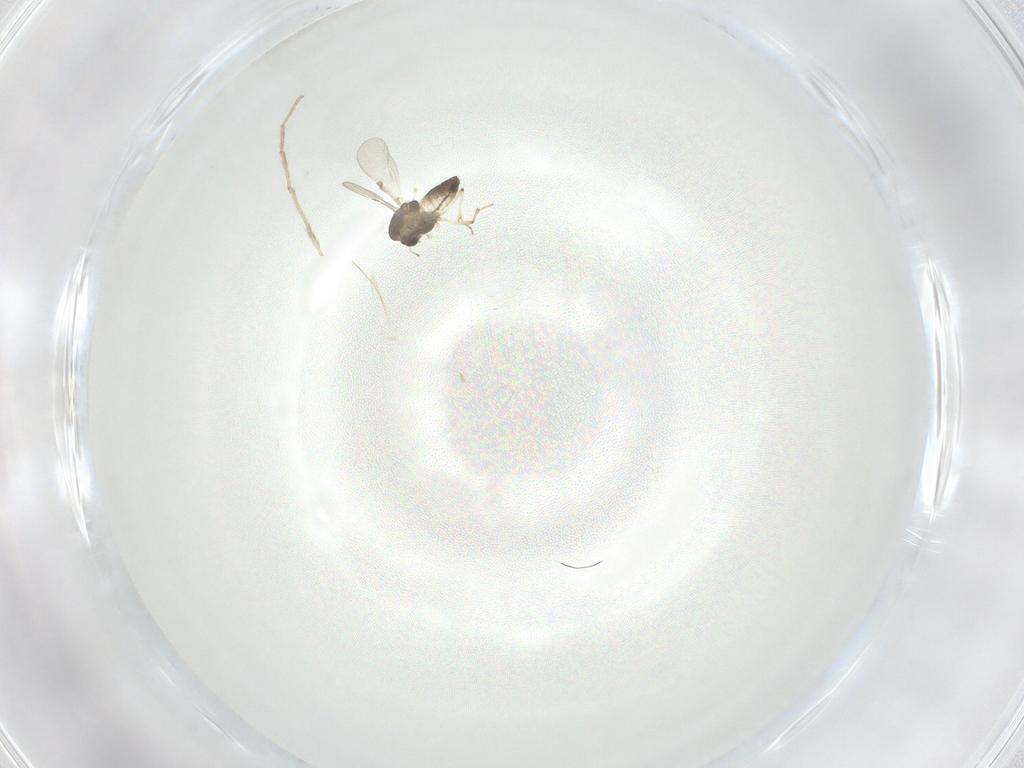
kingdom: Animalia
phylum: Arthropoda
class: Insecta
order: Diptera
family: Chironomidae
